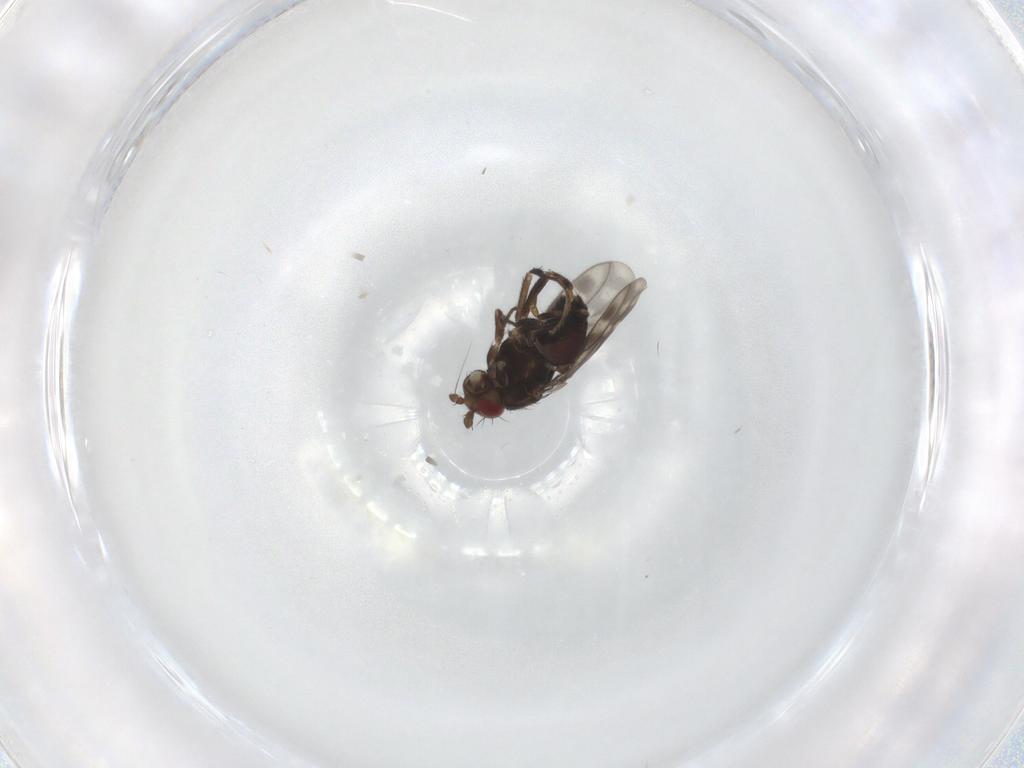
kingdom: Animalia
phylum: Arthropoda
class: Insecta
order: Diptera
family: Sphaeroceridae
